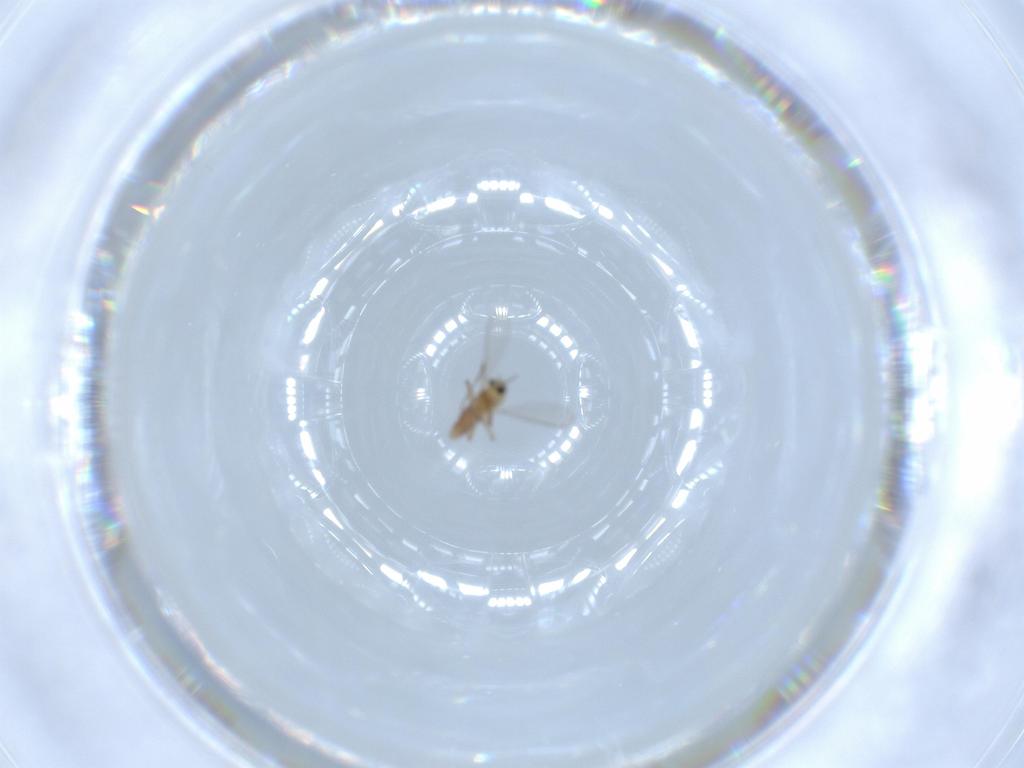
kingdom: Animalia
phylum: Arthropoda
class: Insecta
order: Diptera
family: Chironomidae
